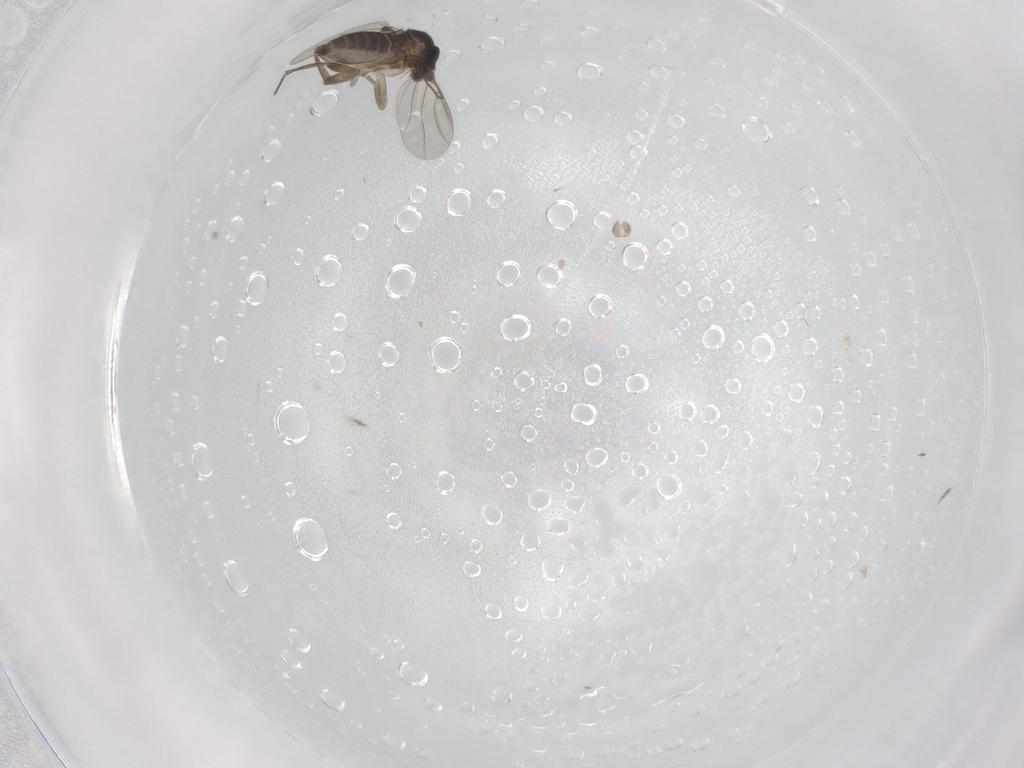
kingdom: Animalia
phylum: Arthropoda
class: Insecta
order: Diptera
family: Phoridae
